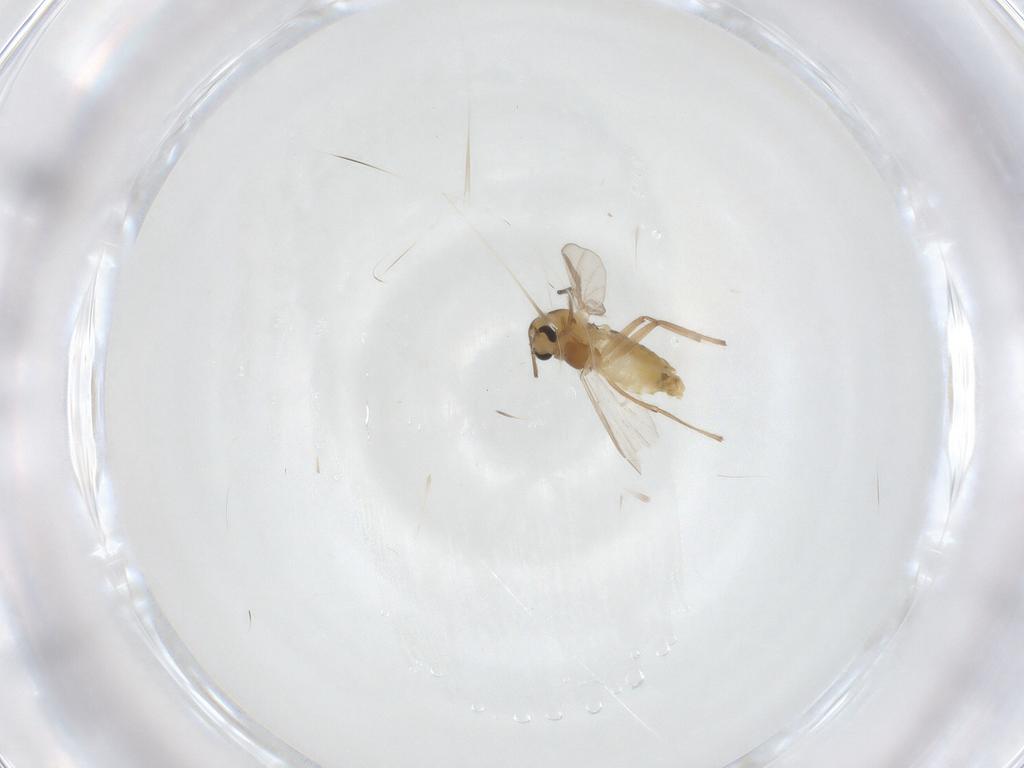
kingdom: Animalia
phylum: Arthropoda
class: Insecta
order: Diptera
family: Chironomidae
